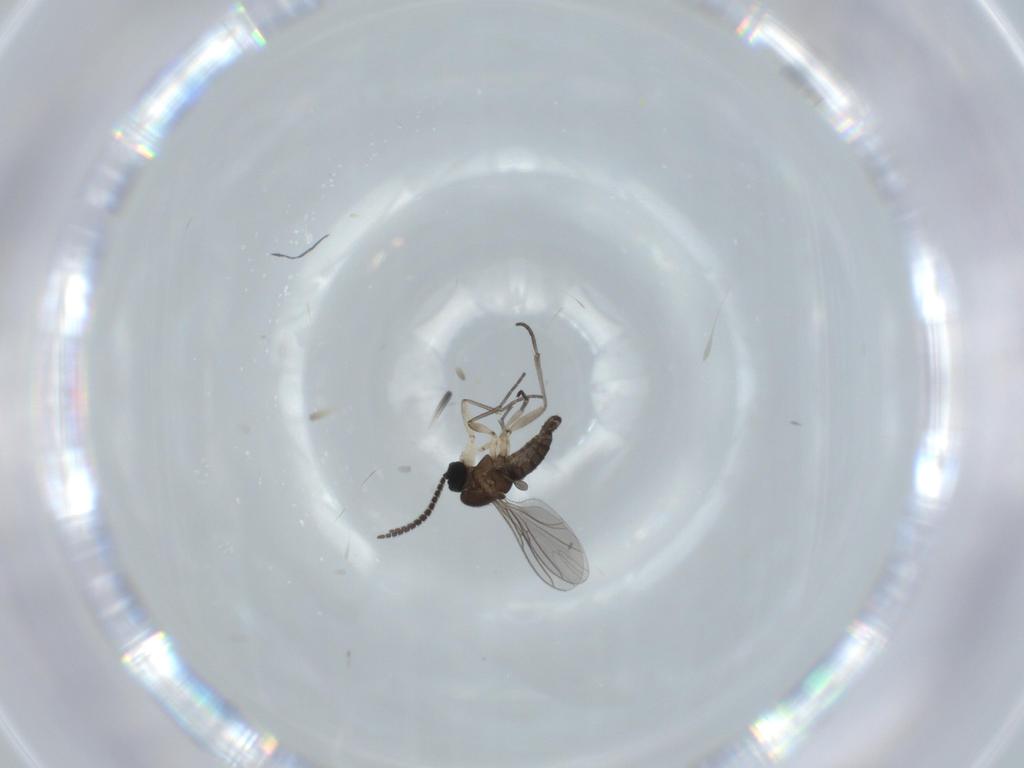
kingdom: Animalia
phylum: Arthropoda
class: Insecta
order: Diptera
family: Sciaridae
